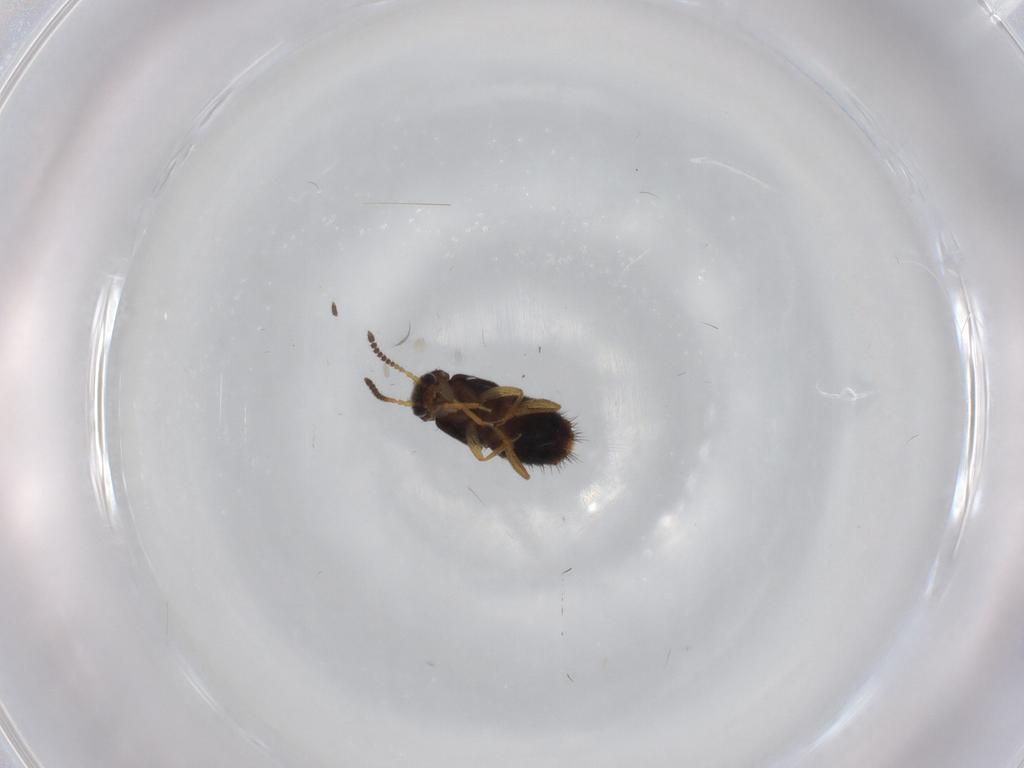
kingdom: Animalia
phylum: Arthropoda
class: Insecta
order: Coleoptera
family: Staphylinidae
